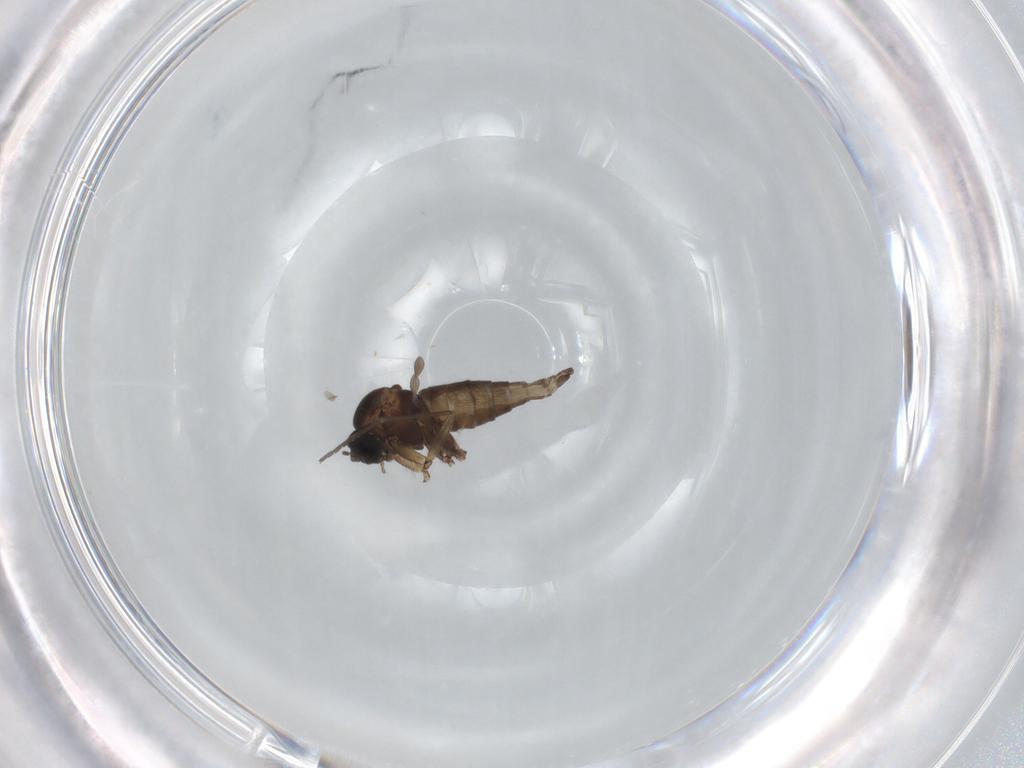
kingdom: Animalia
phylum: Arthropoda
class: Insecta
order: Diptera
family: Sciaridae
